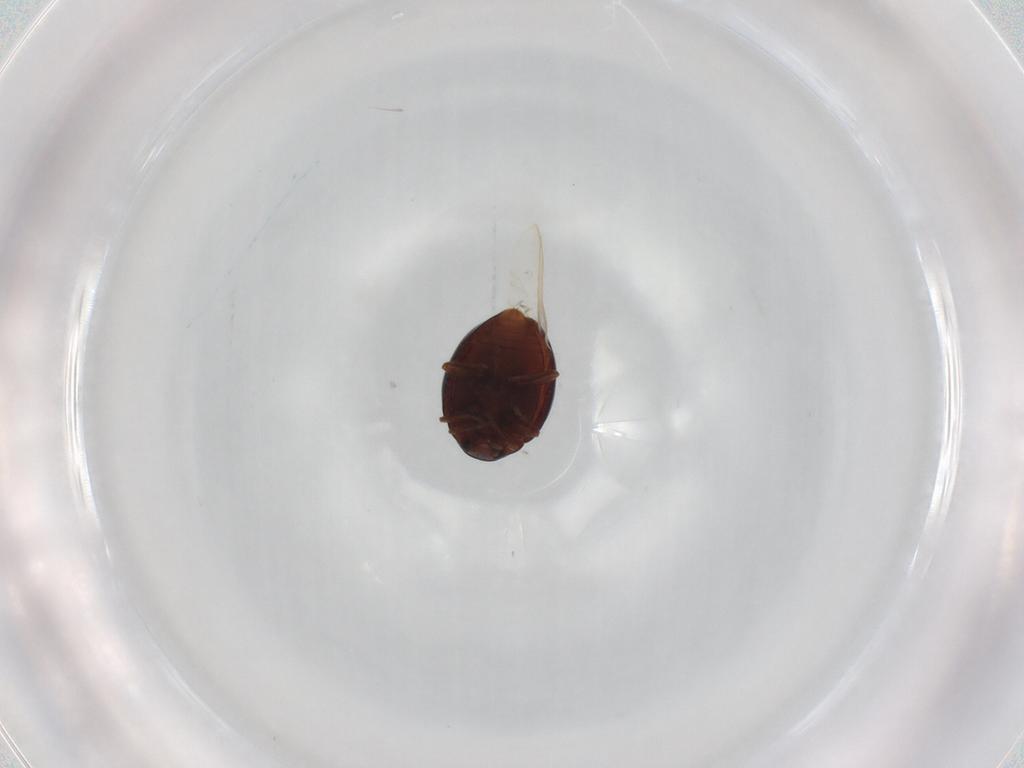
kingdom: Animalia
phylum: Arthropoda
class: Insecta
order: Coleoptera
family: Coccinellidae
